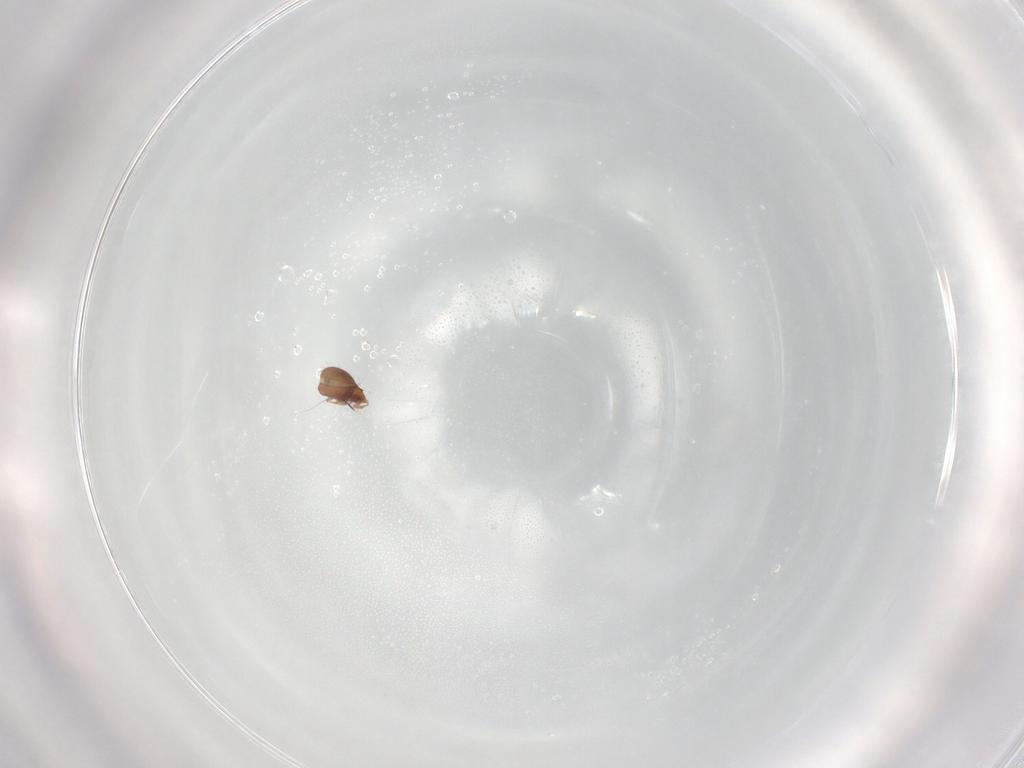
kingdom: Animalia
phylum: Arthropoda
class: Arachnida
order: Sarcoptiformes
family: Oribatulidae
